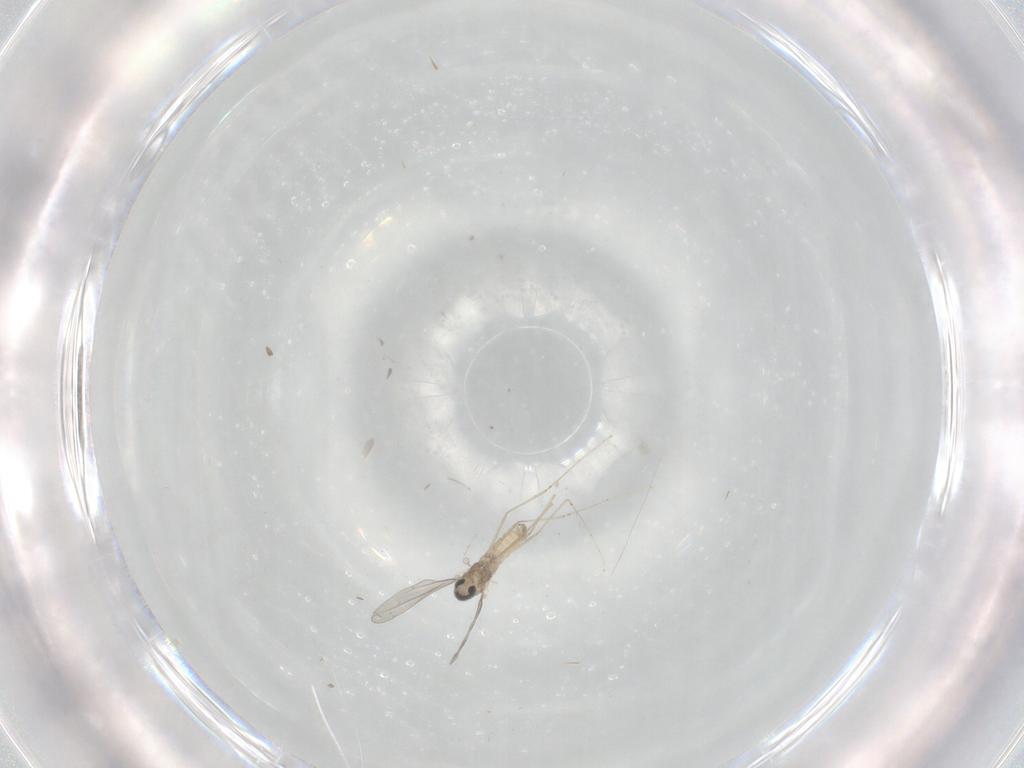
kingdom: Animalia
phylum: Arthropoda
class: Insecta
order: Diptera
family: Cecidomyiidae
